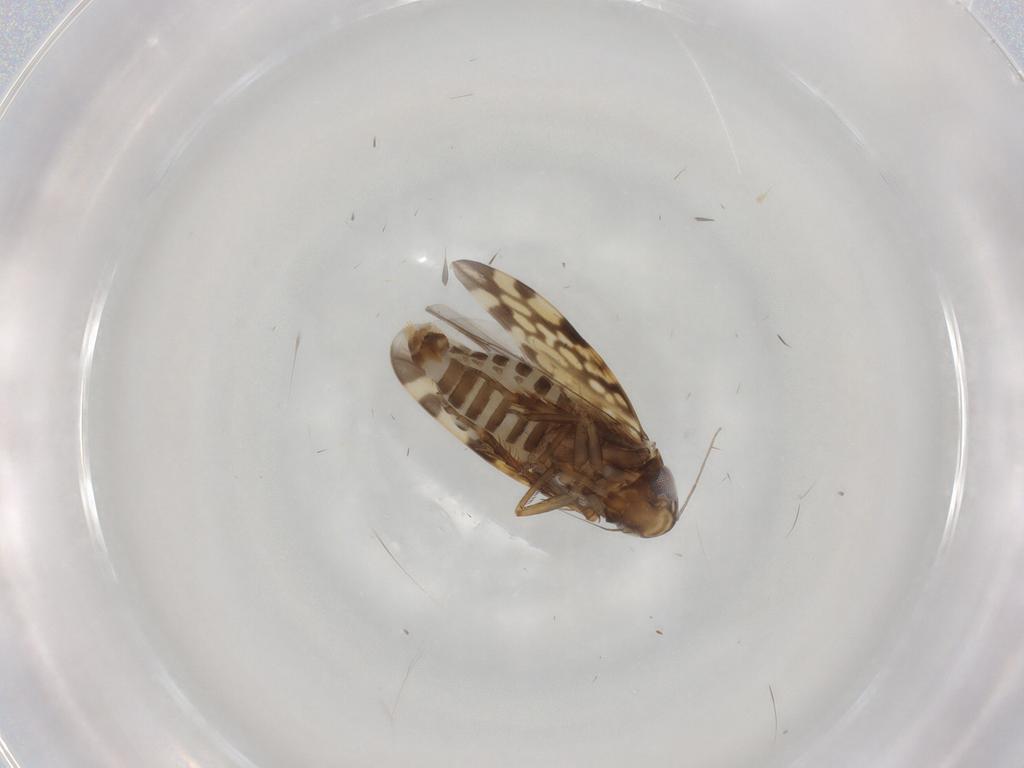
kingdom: Animalia
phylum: Arthropoda
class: Insecta
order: Hemiptera
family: Cicadellidae
